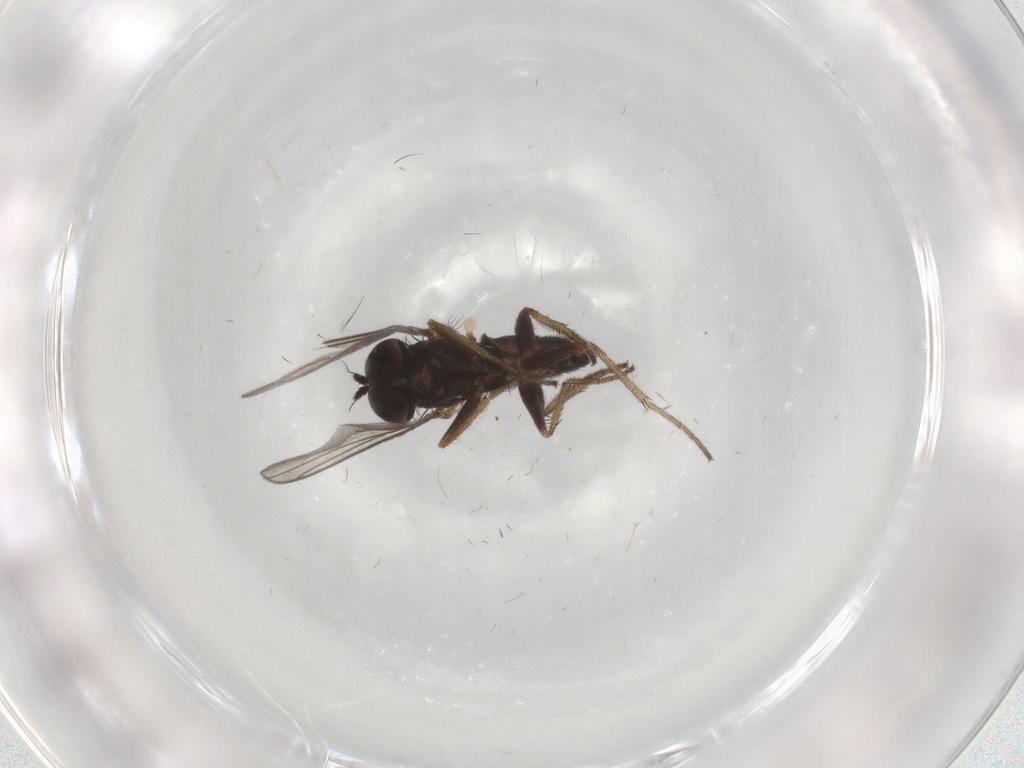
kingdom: Animalia
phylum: Arthropoda
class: Insecta
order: Diptera
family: Dolichopodidae
